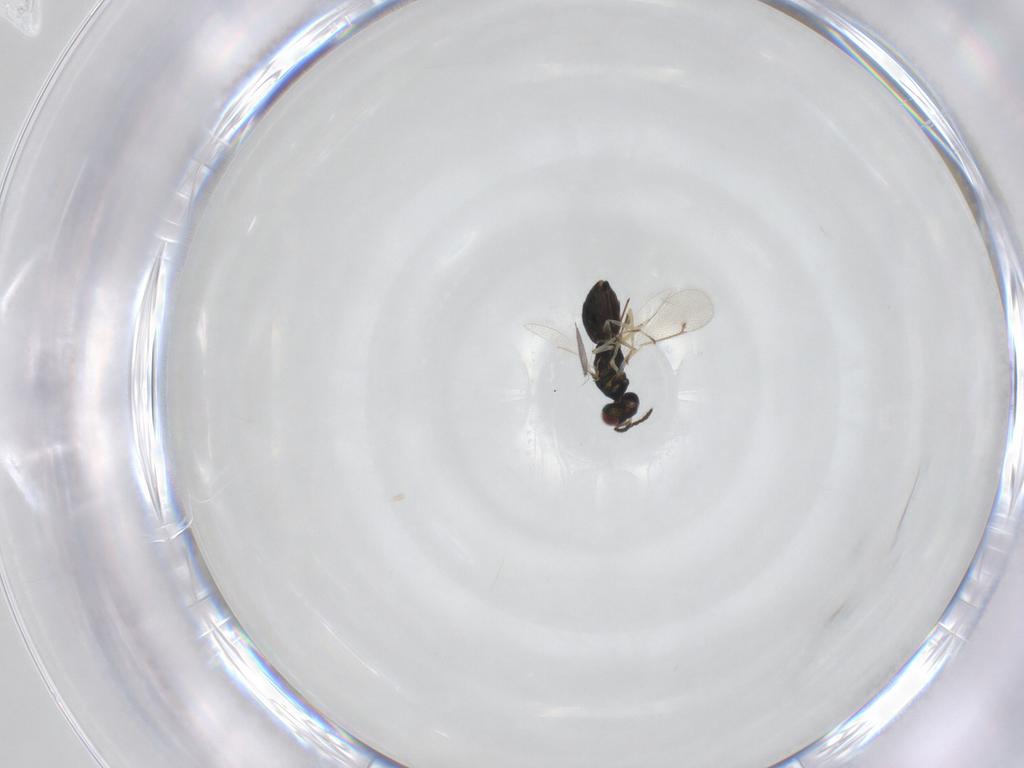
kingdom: Animalia
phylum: Arthropoda
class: Insecta
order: Hymenoptera
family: Eulophidae
